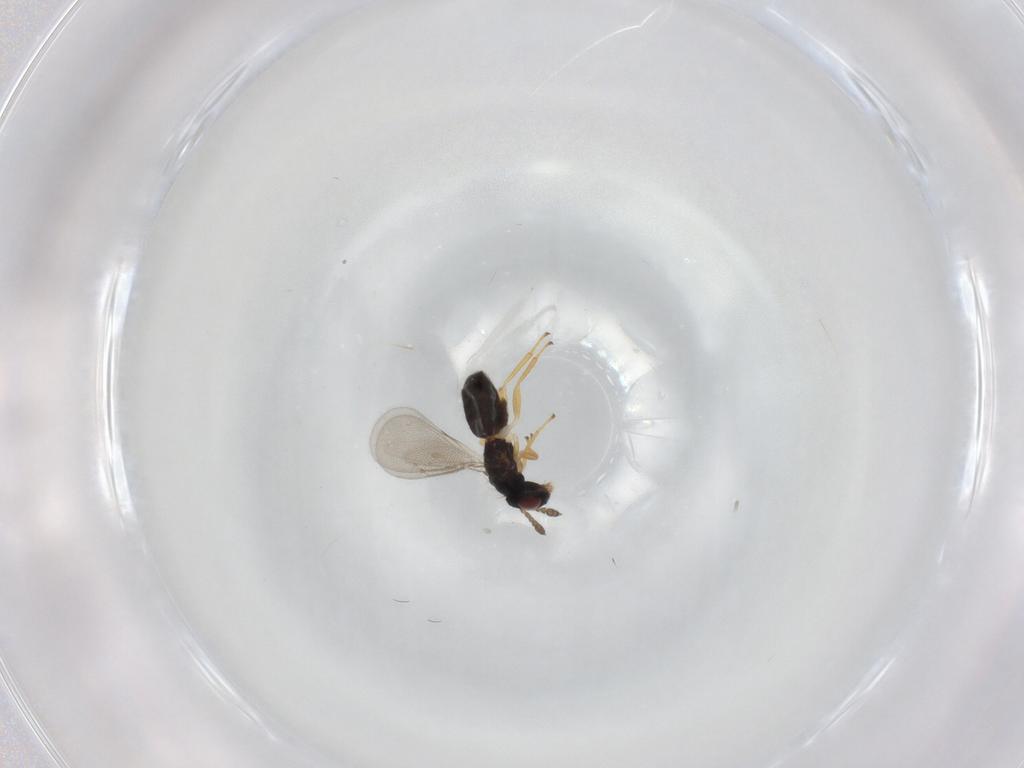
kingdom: Animalia
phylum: Arthropoda
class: Insecta
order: Hymenoptera
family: Eulophidae
